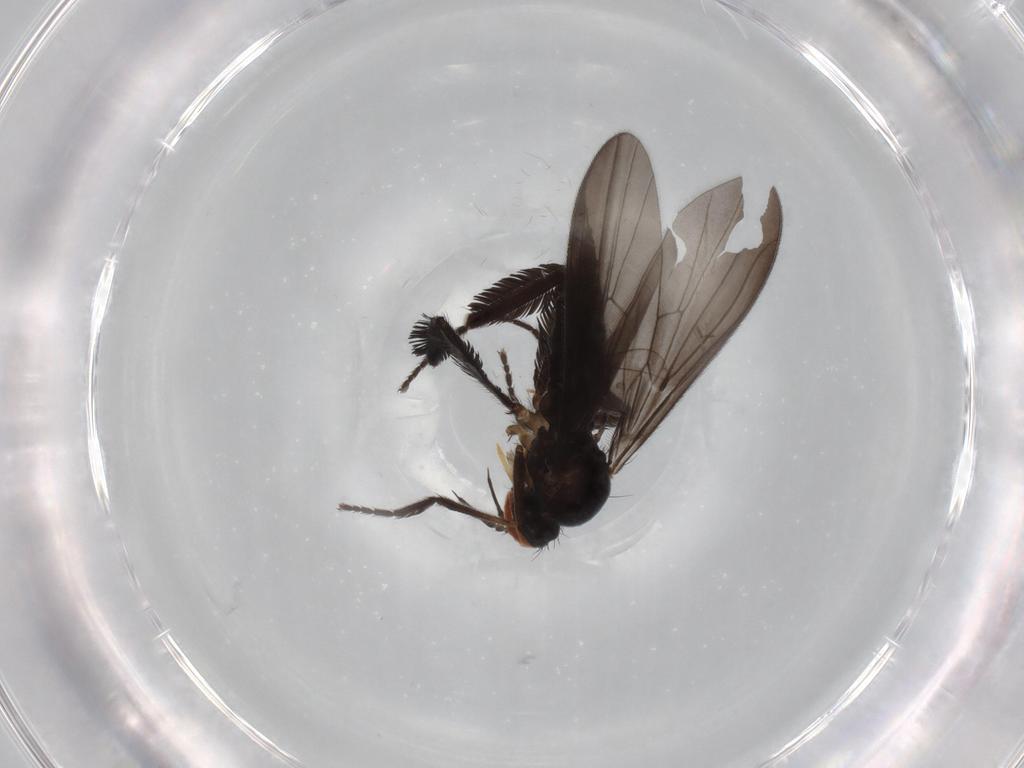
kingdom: Animalia
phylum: Arthropoda
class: Insecta
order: Diptera
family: Empididae
